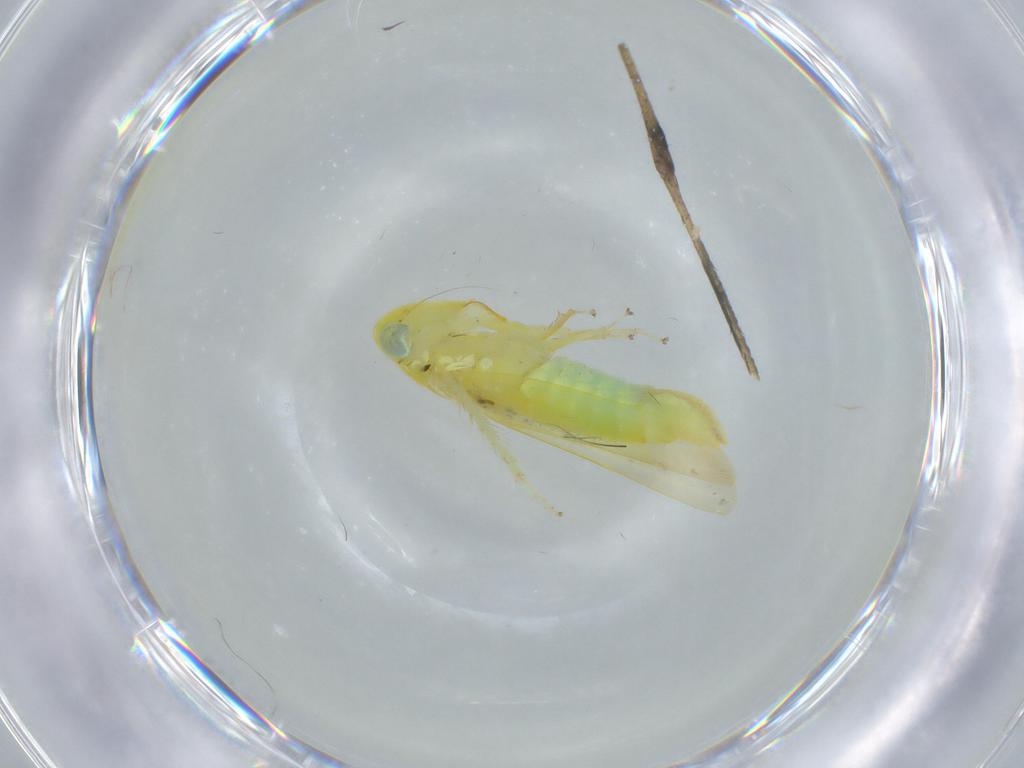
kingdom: Animalia
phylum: Arthropoda
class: Insecta
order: Hemiptera
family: Cicadellidae
